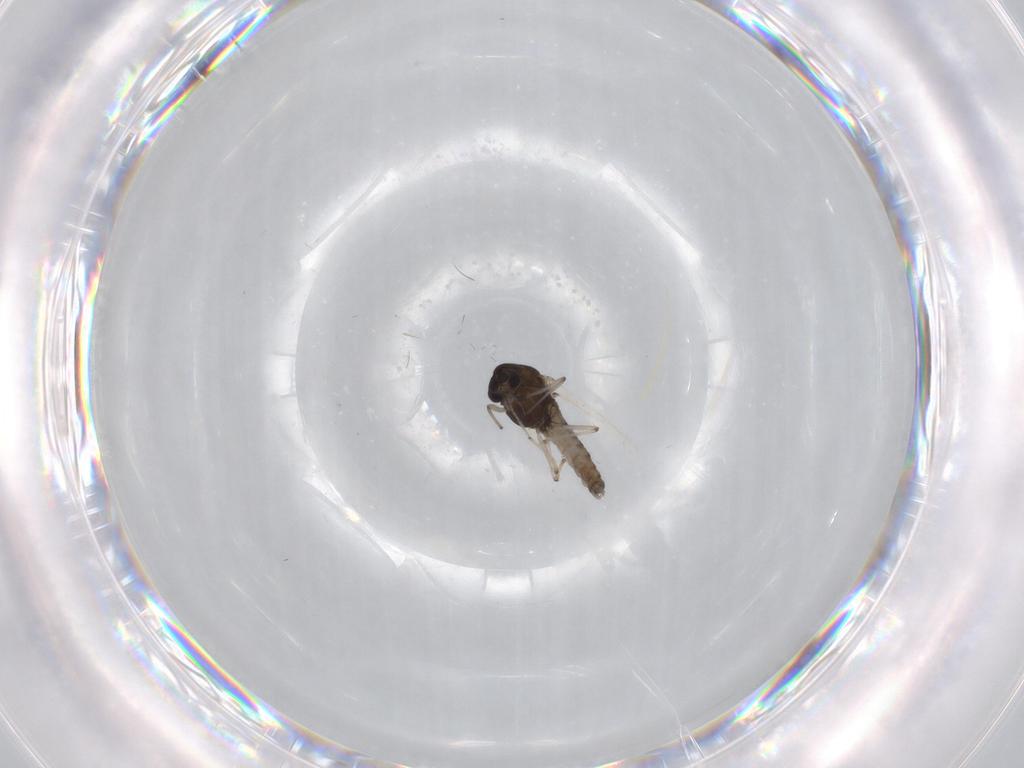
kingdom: Animalia
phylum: Arthropoda
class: Insecta
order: Diptera
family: Chironomidae
